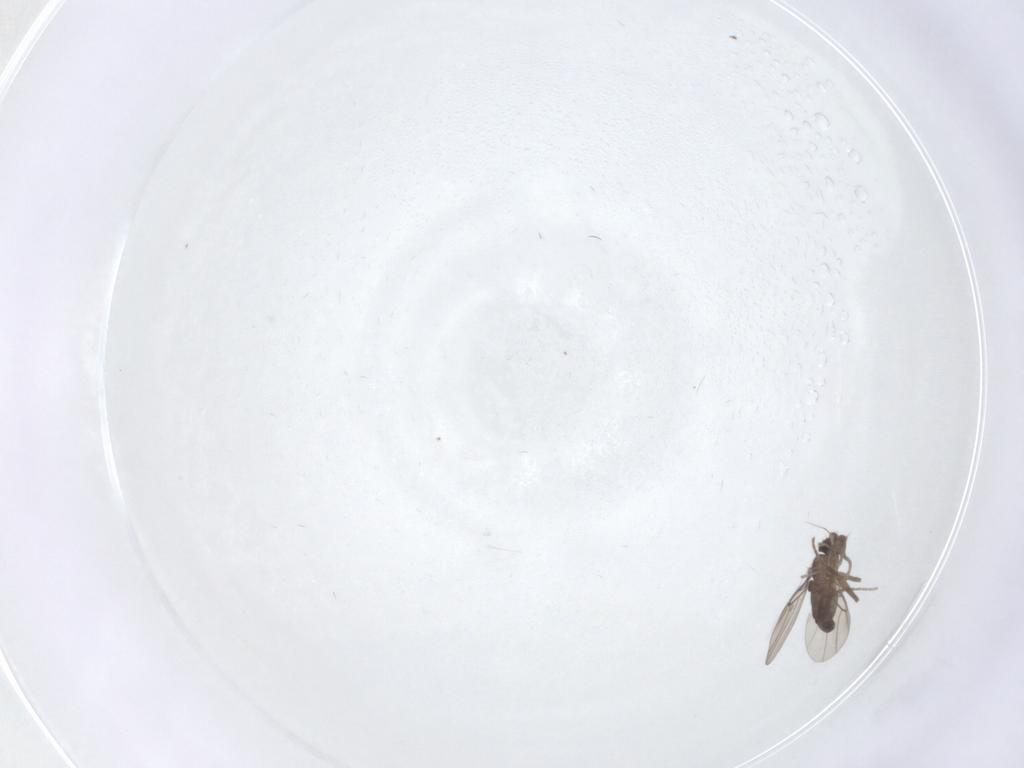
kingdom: Animalia
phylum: Arthropoda
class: Insecta
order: Diptera
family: Phoridae
